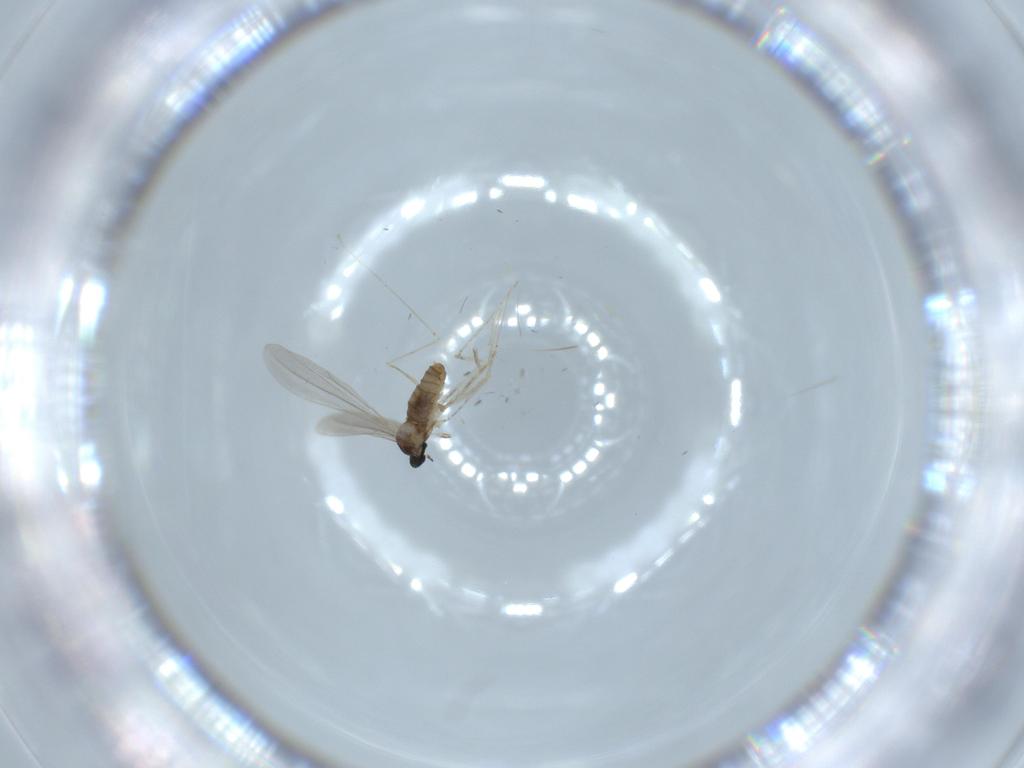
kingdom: Animalia
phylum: Arthropoda
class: Insecta
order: Diptera
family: Cecidomyiidae
